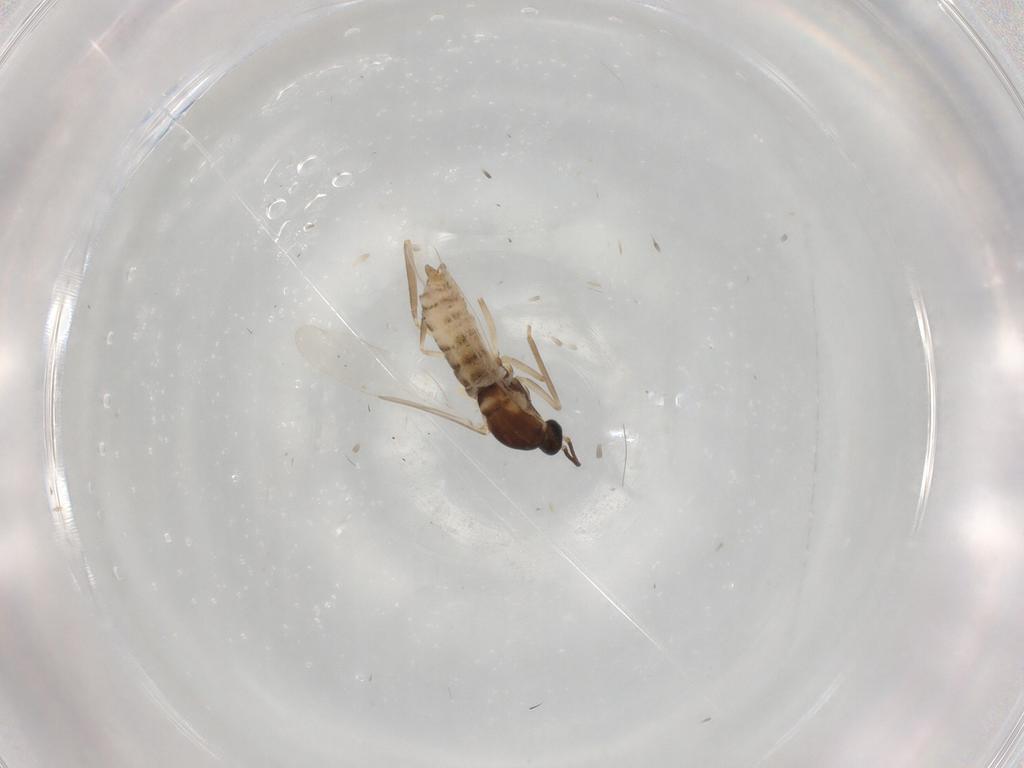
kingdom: Animalia
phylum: Arthropoda
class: Insecta
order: Diptera
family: Cecidomyiidae
